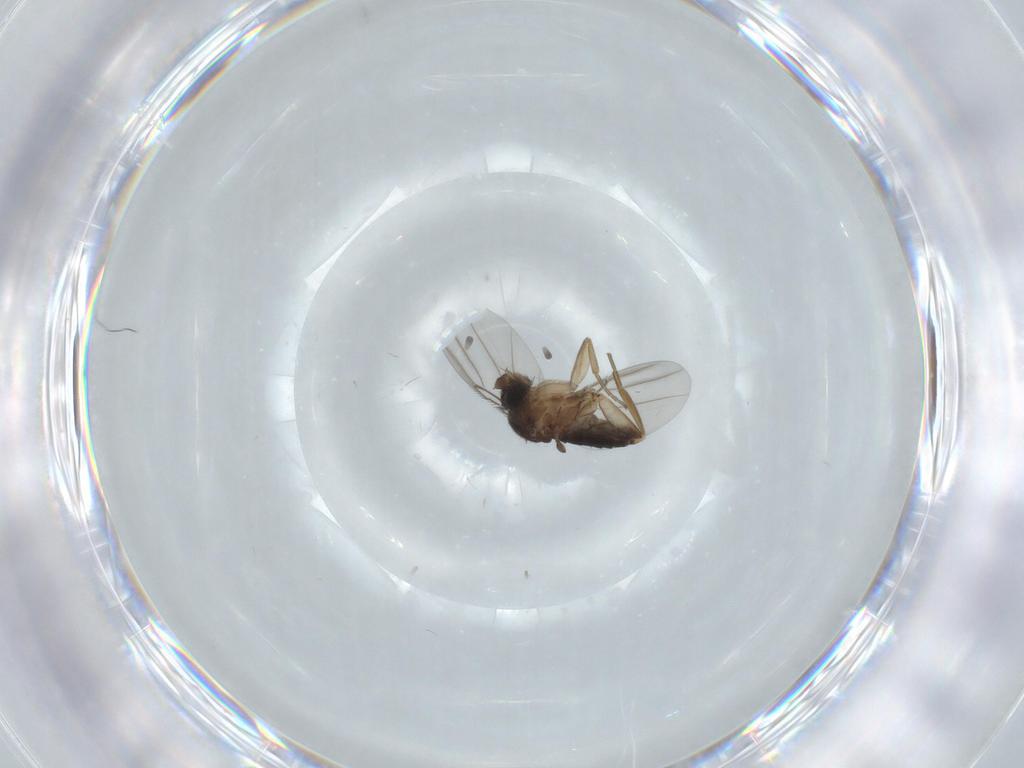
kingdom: Animalia
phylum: Arthropoda
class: Insecta
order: Diptera
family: Phoridae
